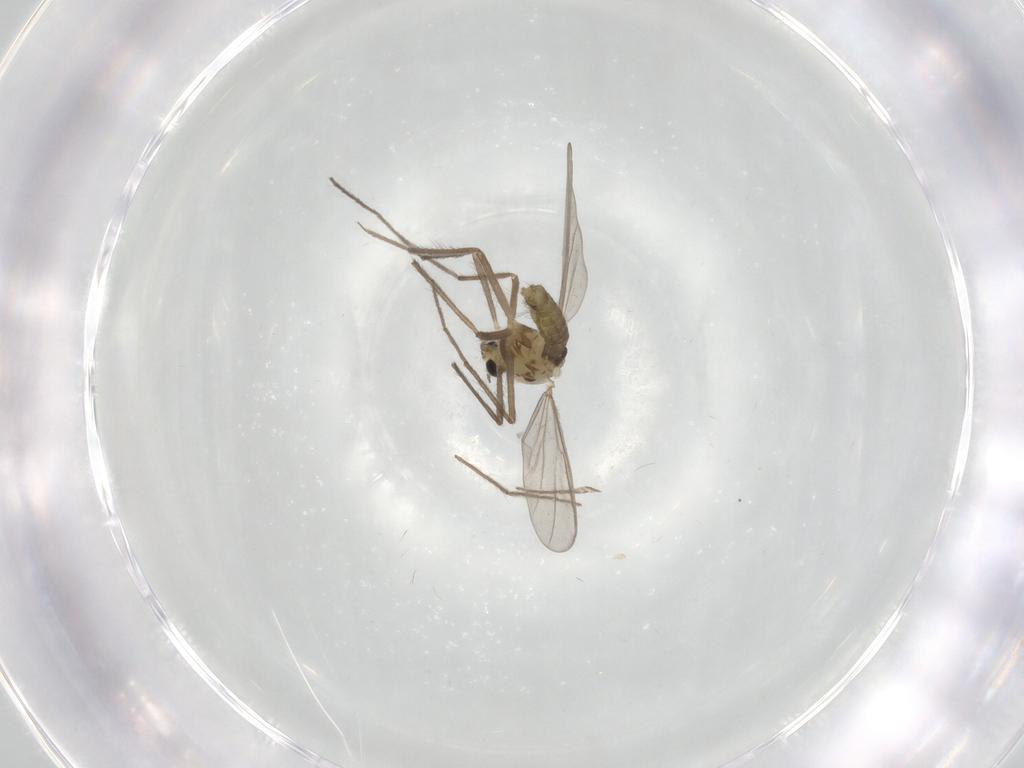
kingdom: Animalia
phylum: Arthropoda
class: Insecta
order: Diptera
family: Chironomidae
